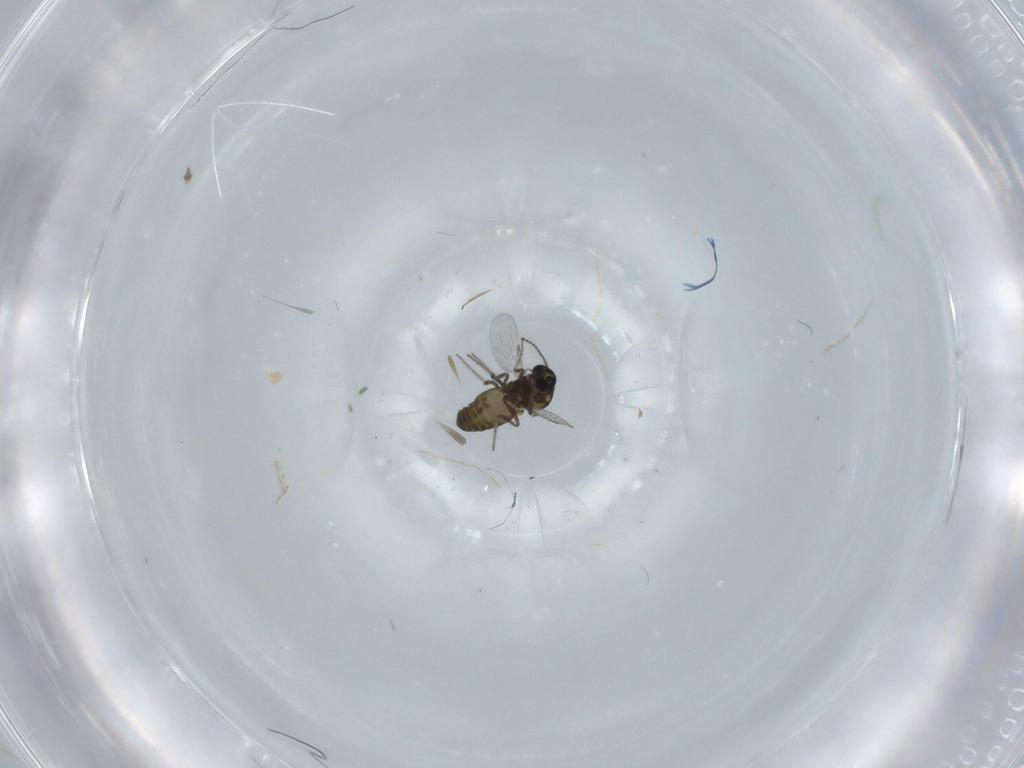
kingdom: Animalia
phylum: Arthropoda
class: Insecta
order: Diptera
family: Ceratopogonidae
